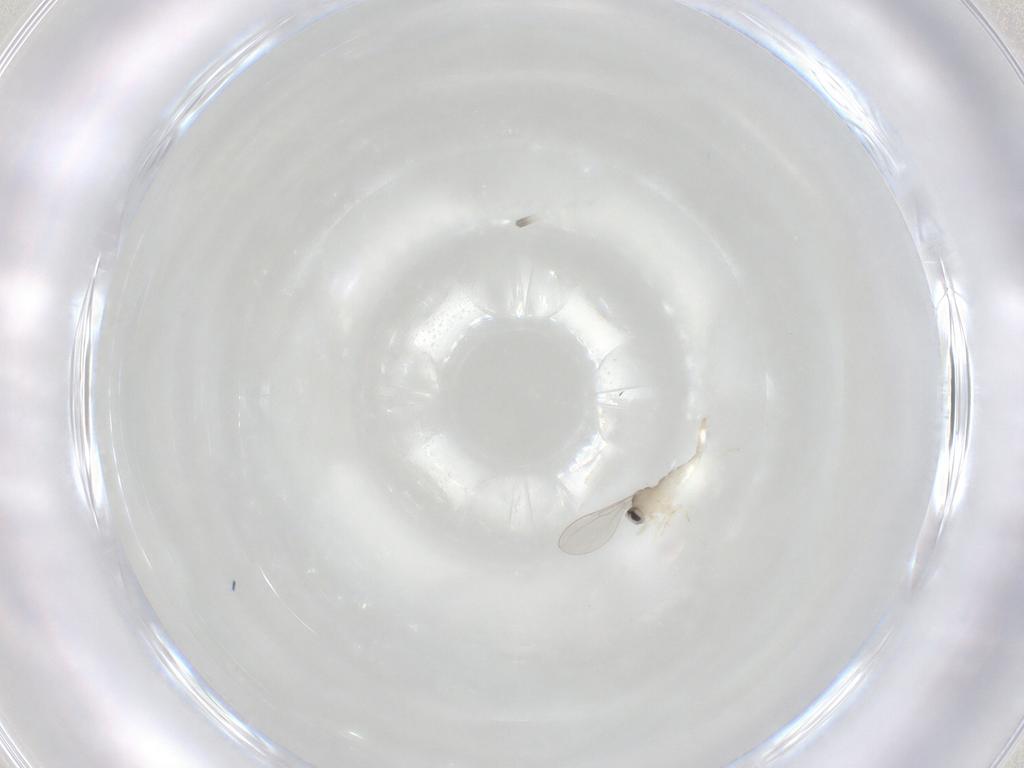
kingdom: Animalia
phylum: Arthropoda
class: Insecta
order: Diptera
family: Cecidomyiidae
